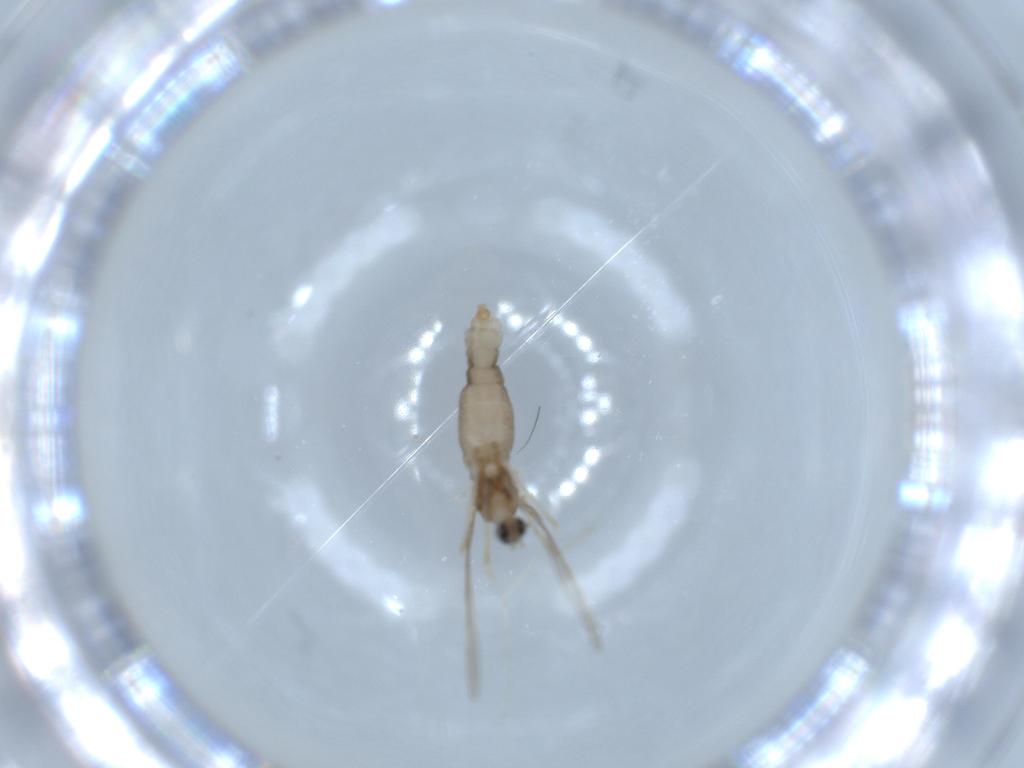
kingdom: Animalia
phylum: Arthropoda
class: Insecta
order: Diptera
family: Cecidomyiidae
